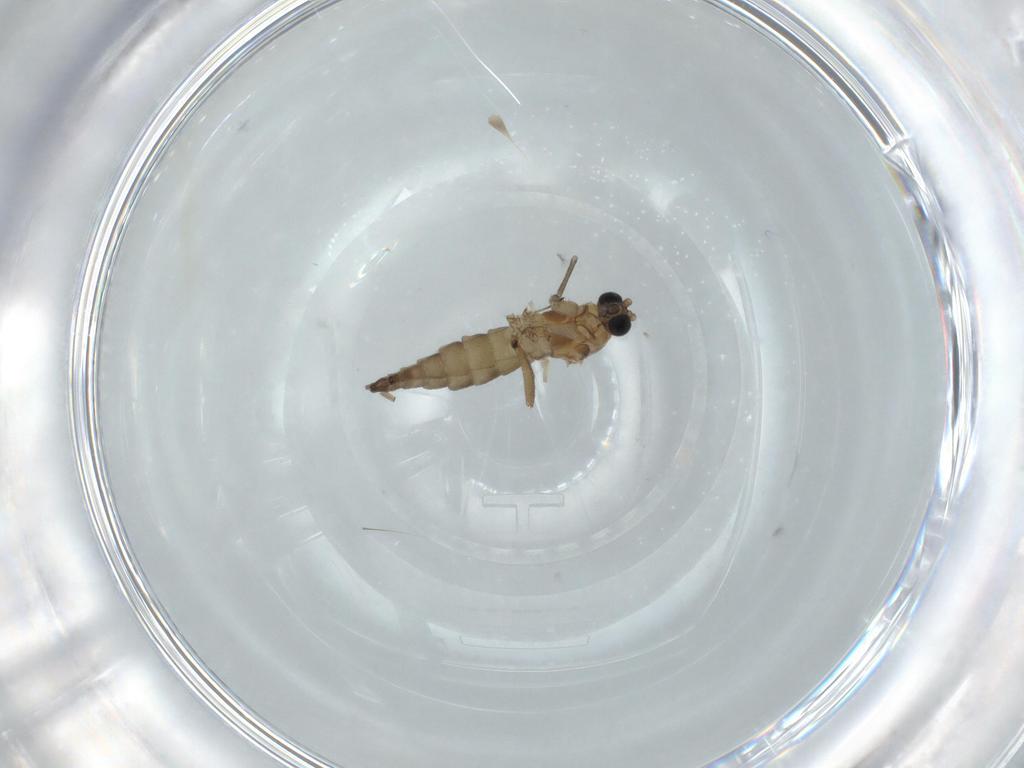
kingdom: Animalia
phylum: Arthropoda
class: Insecta
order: Diptera
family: Sciaridae
